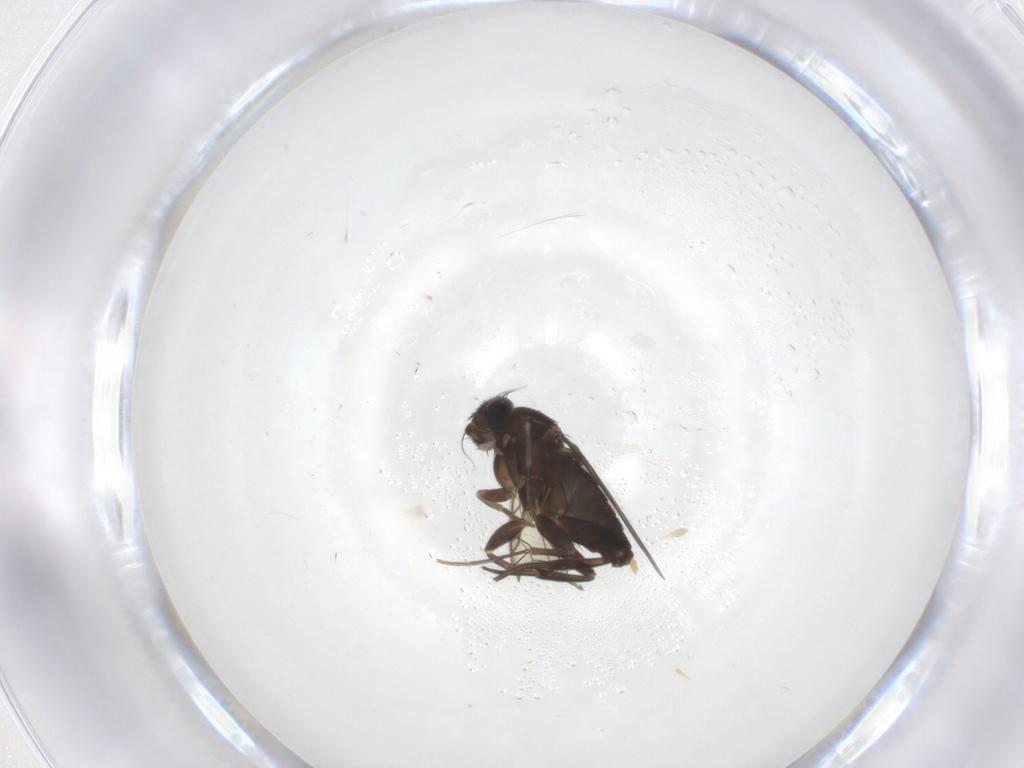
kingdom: Animalia
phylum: Arthropoda
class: Insecta
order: Diptera
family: Phoridae
